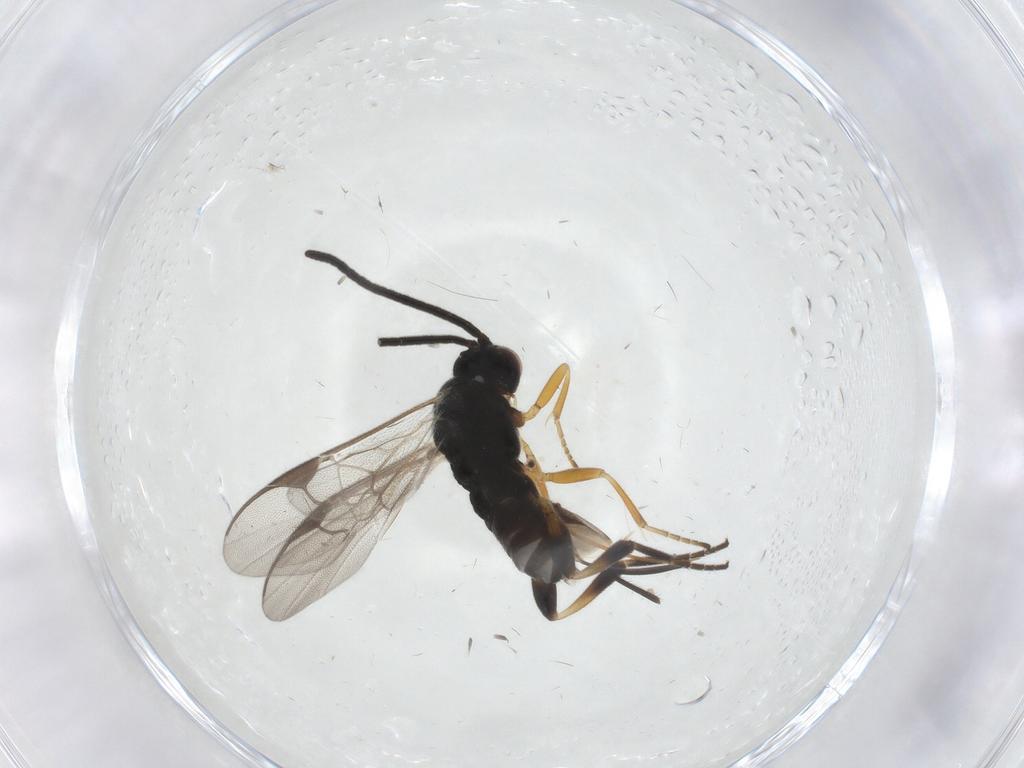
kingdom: Animalia
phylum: Arthropoda
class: Insecta
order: Hymenoptera
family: Braconidae
